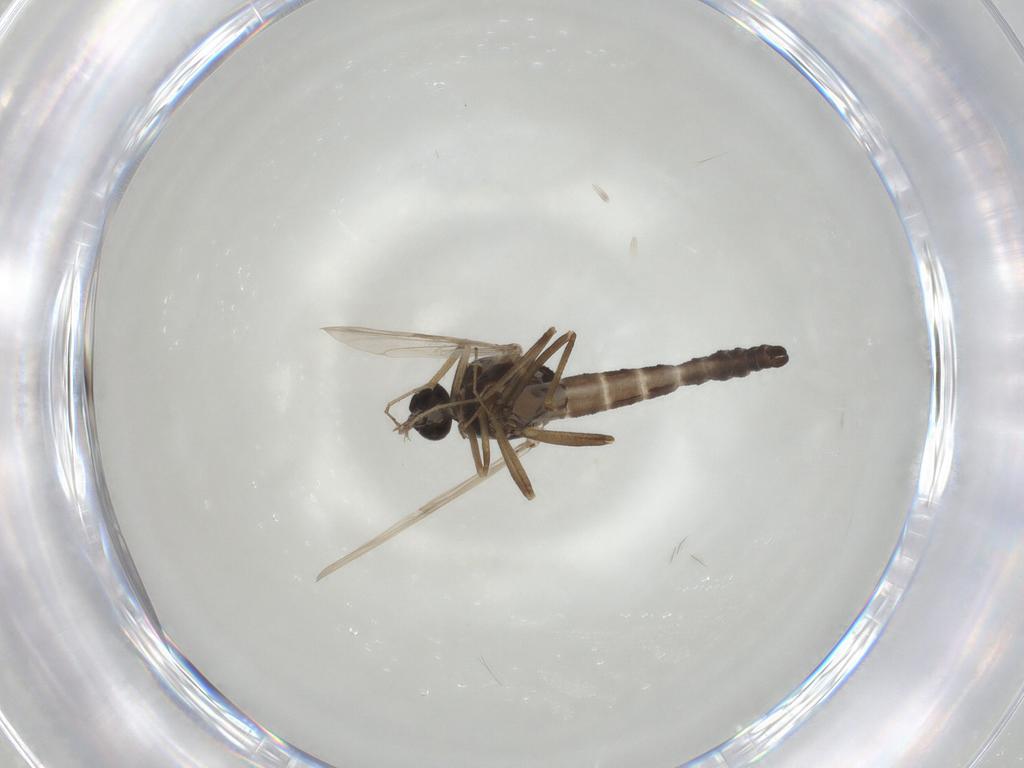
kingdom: Animalia
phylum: Arthropoda
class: Insecta
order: Diptera
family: Ceratopogonidae
